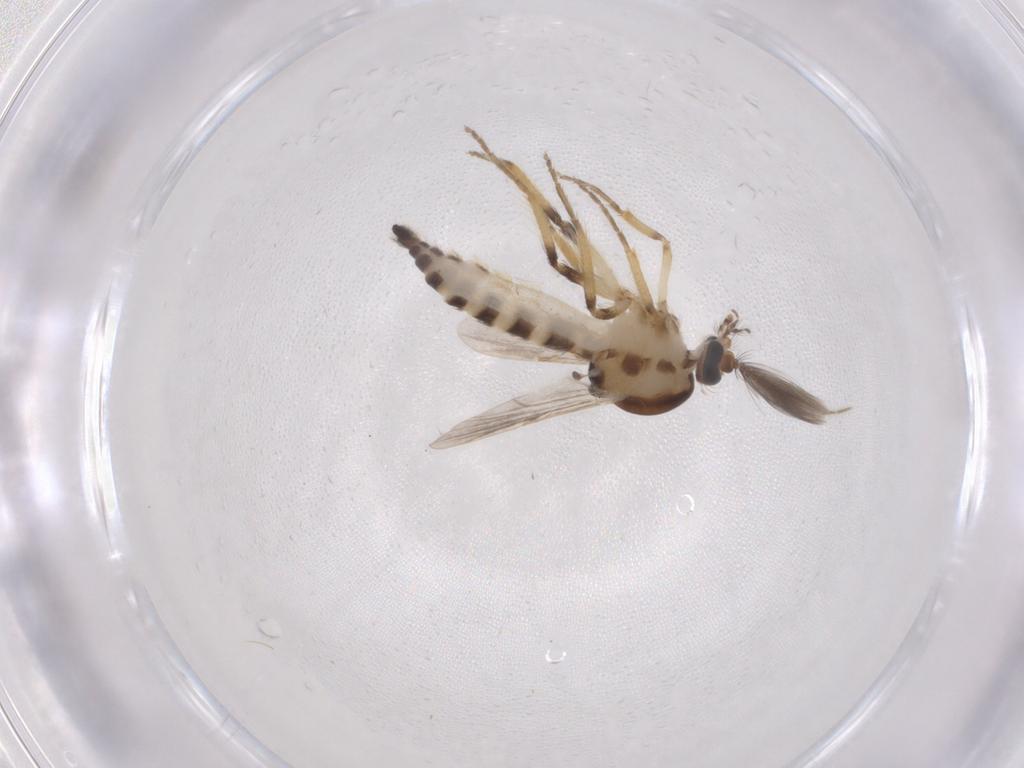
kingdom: Animalia
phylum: Arthropoda
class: Insecta
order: Diptera
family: Ceratopogonidae
